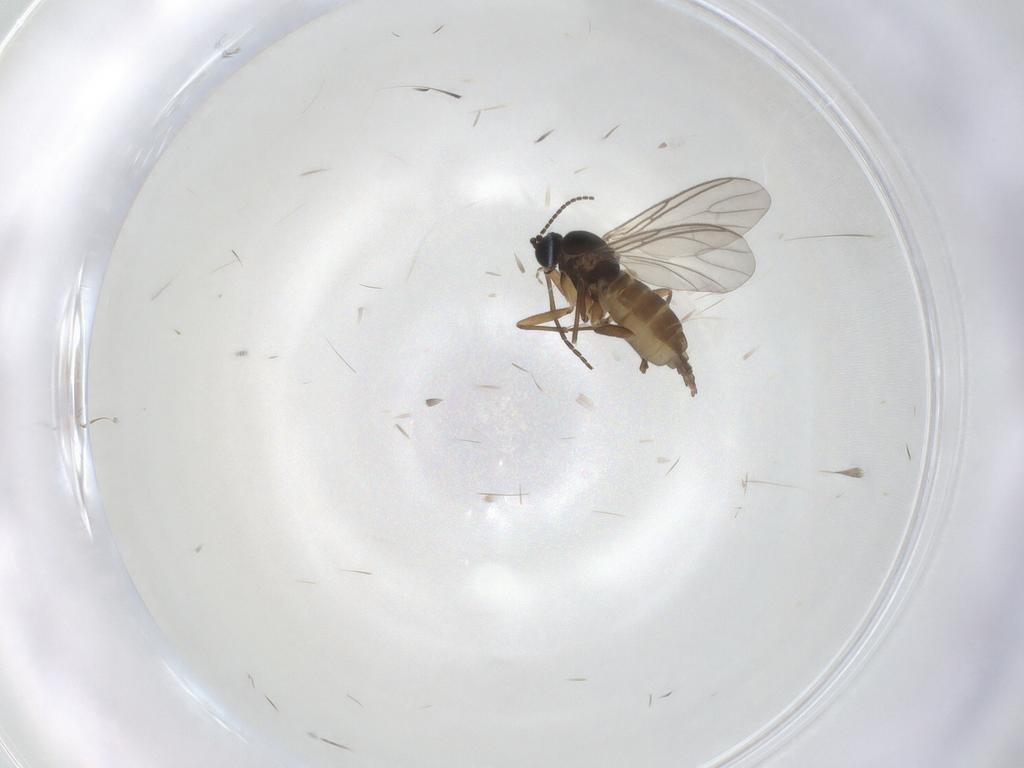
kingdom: Animalia
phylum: Arthropoda
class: Insecta
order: Diptera
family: Sciaridae
